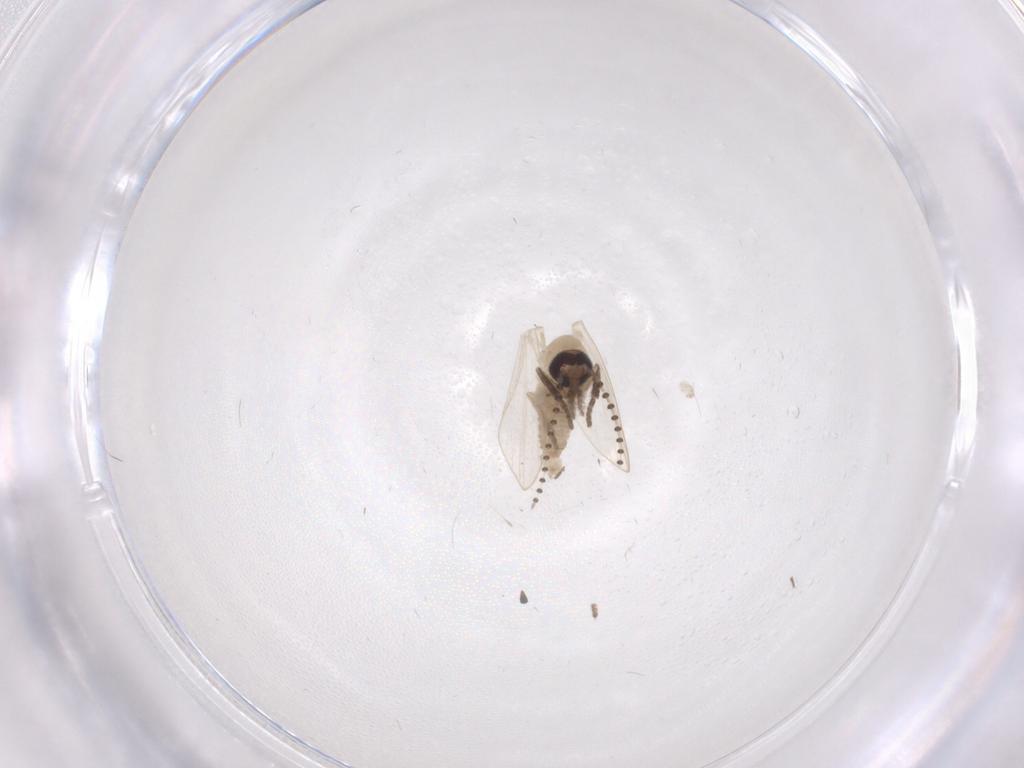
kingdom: Animalia
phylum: Arthropoda
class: Insecta
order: Diptera
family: Psychodidae
